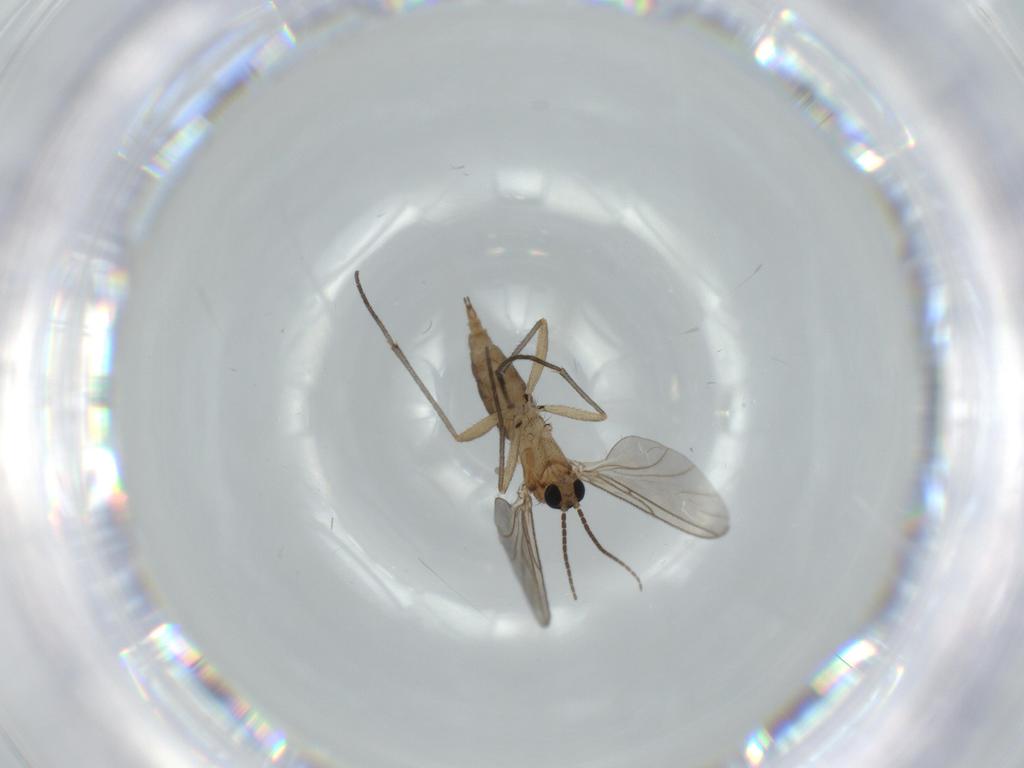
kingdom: Animalia
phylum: Arthropoda
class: Insecta
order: Diptera
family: Sciaridae
